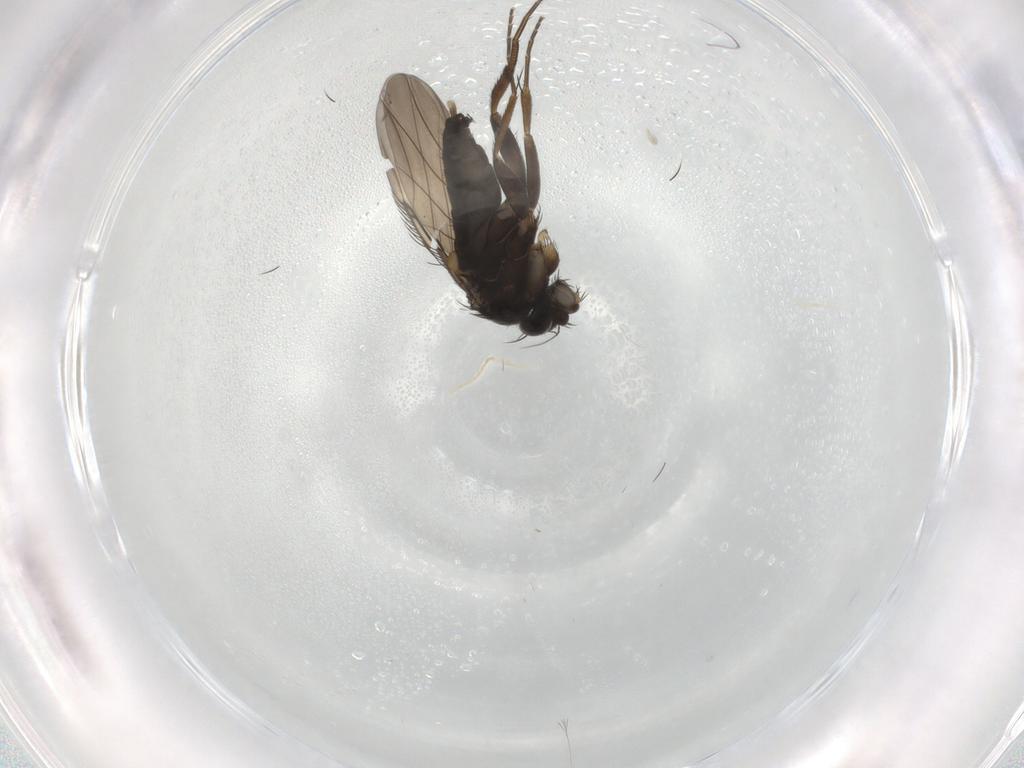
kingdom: Animalia
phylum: Arthropoda
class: Insecta
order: Diptera
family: Phoridae
